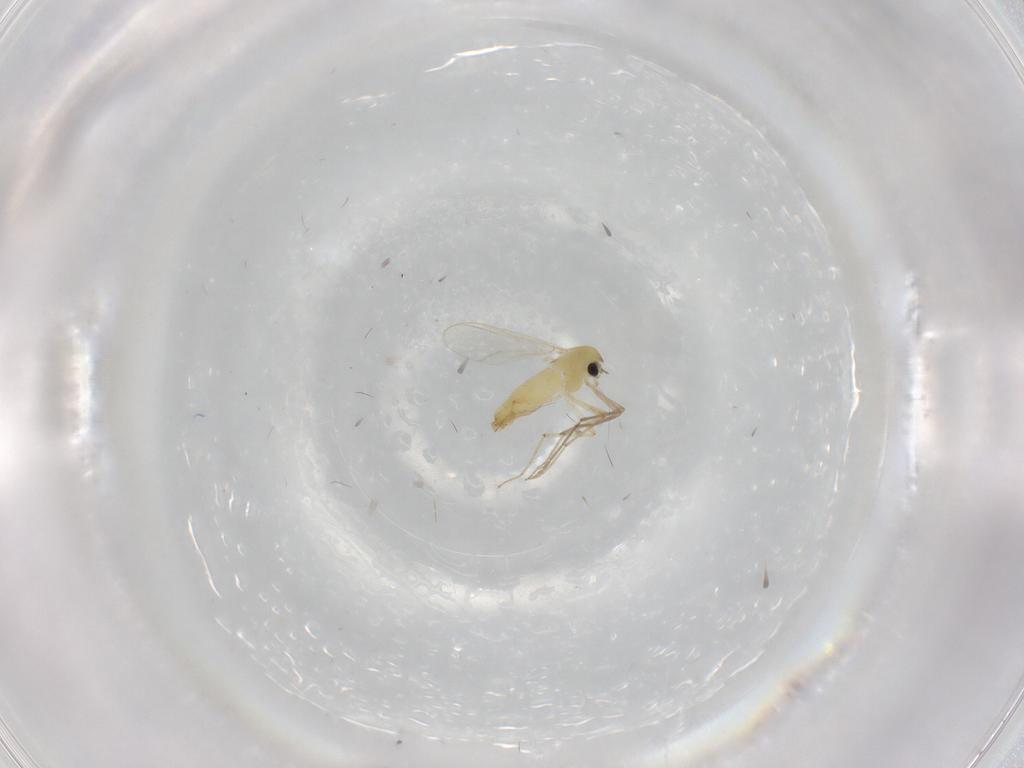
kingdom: Animalia
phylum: Arthropoda
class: Insecta
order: Diptera
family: Chironomidae
